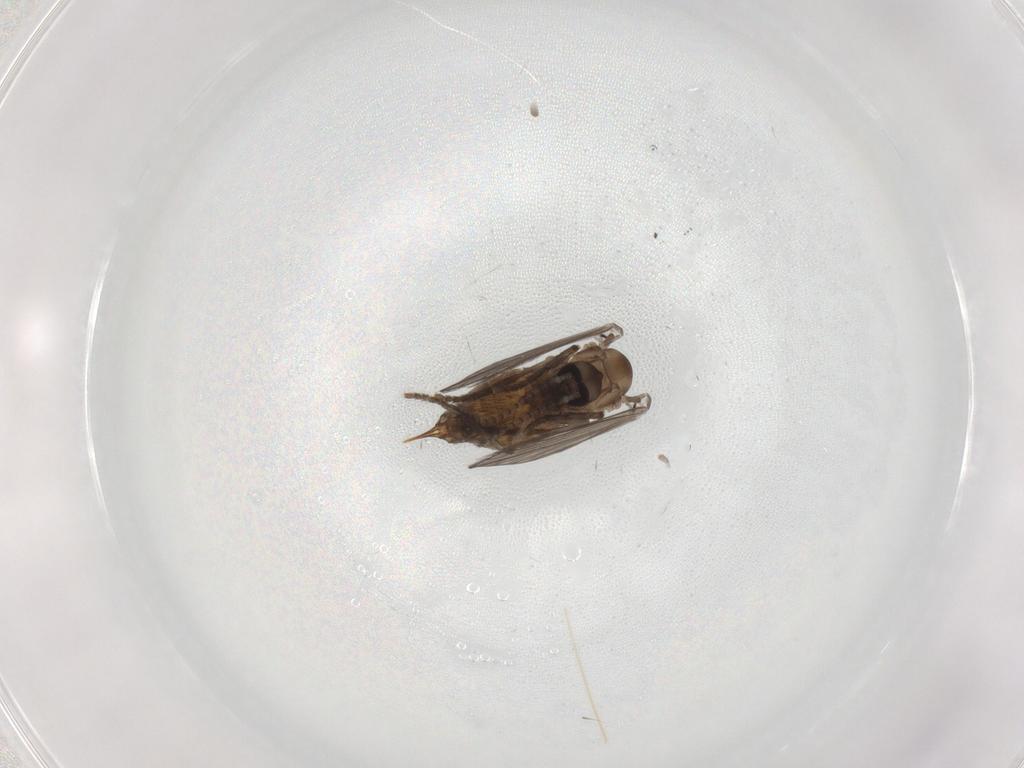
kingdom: Animalia
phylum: Arthropoda
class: Insecta
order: Diptera
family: Psychodidae
